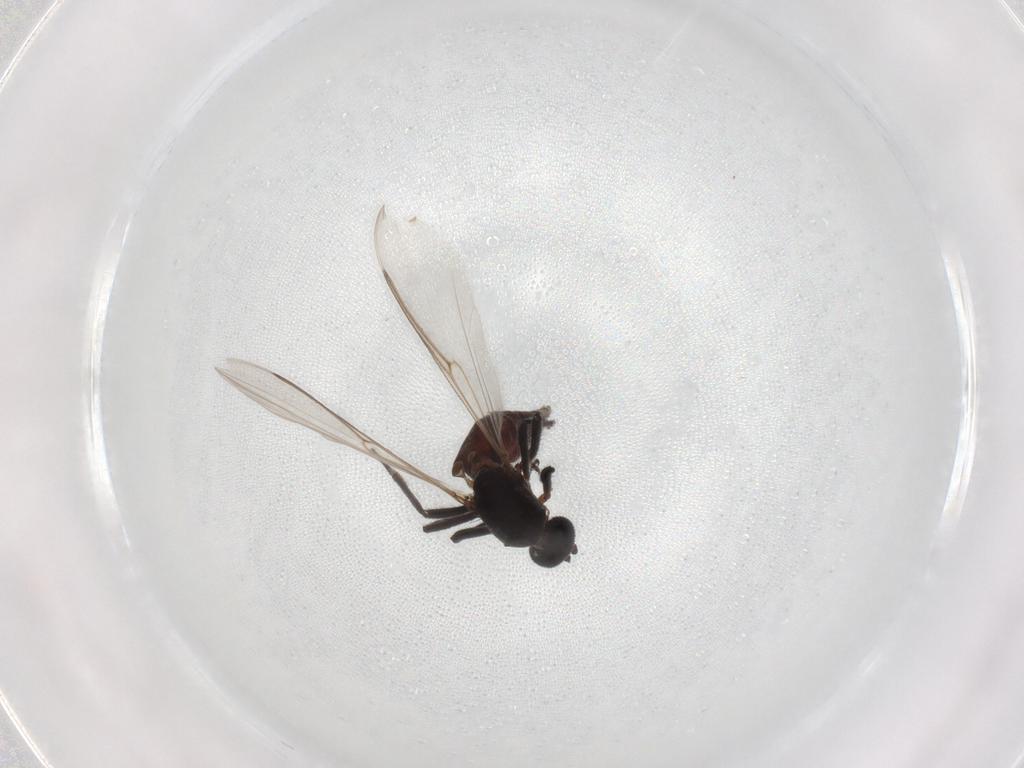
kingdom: Animalia
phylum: Arthropoda
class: Insecta
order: Diptera
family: Ceratopogonidae
